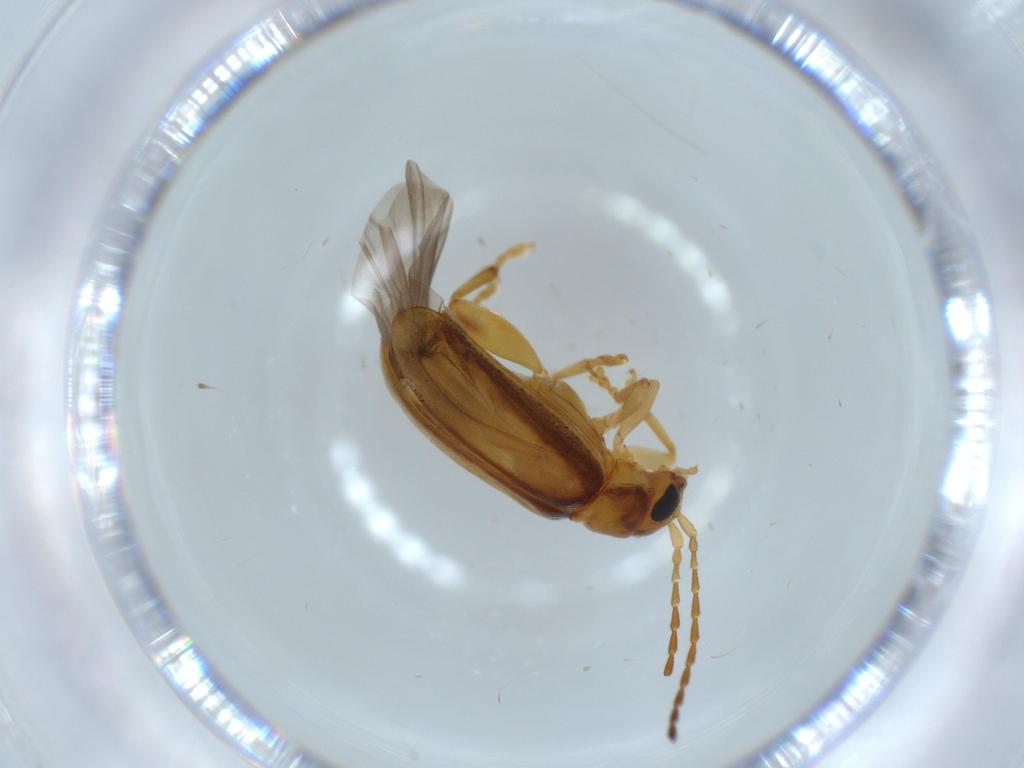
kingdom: Animalia
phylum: Arthropoda
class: Insecta
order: Coleoptera
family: Chrysomelidae
